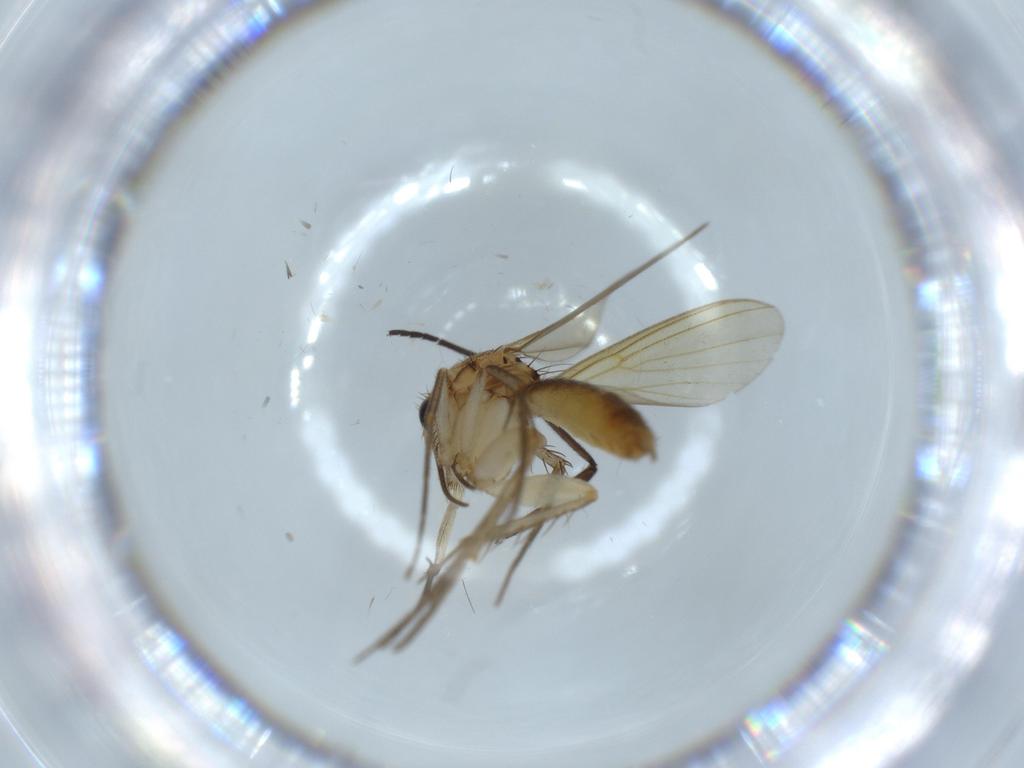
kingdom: Animalia
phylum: Arthropoda
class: Insecta
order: Diptera
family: Mycetophilidae
